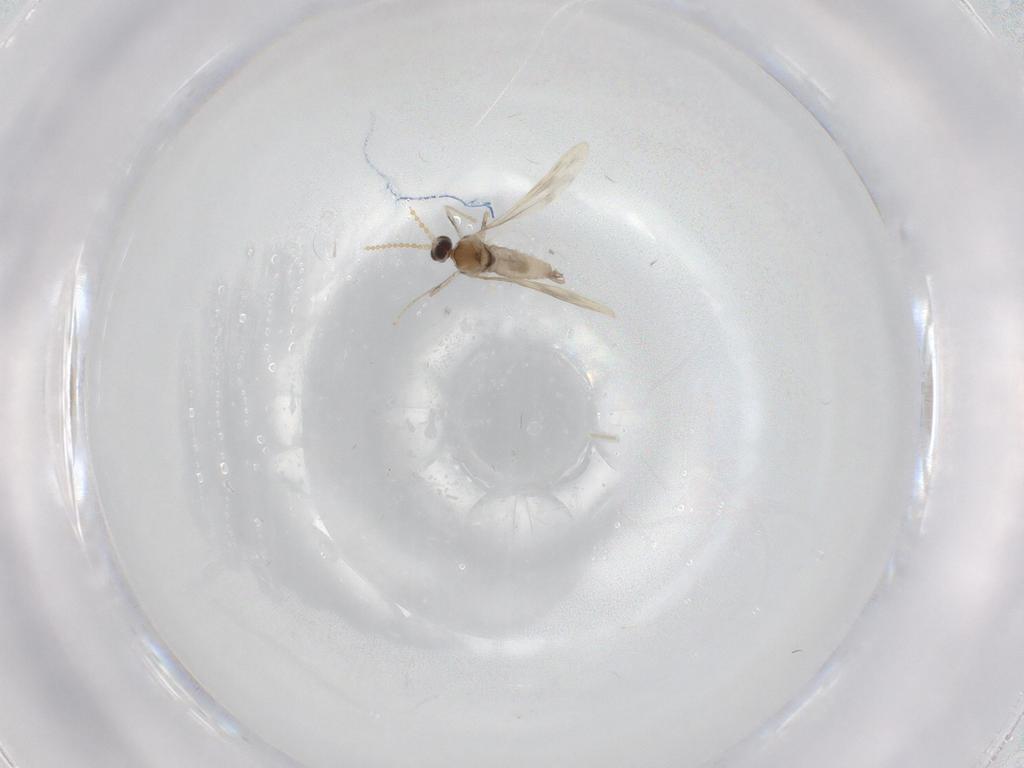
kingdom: Animalia
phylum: Arthropoda
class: Insecta
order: Diptera
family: Cecidomyiidae
